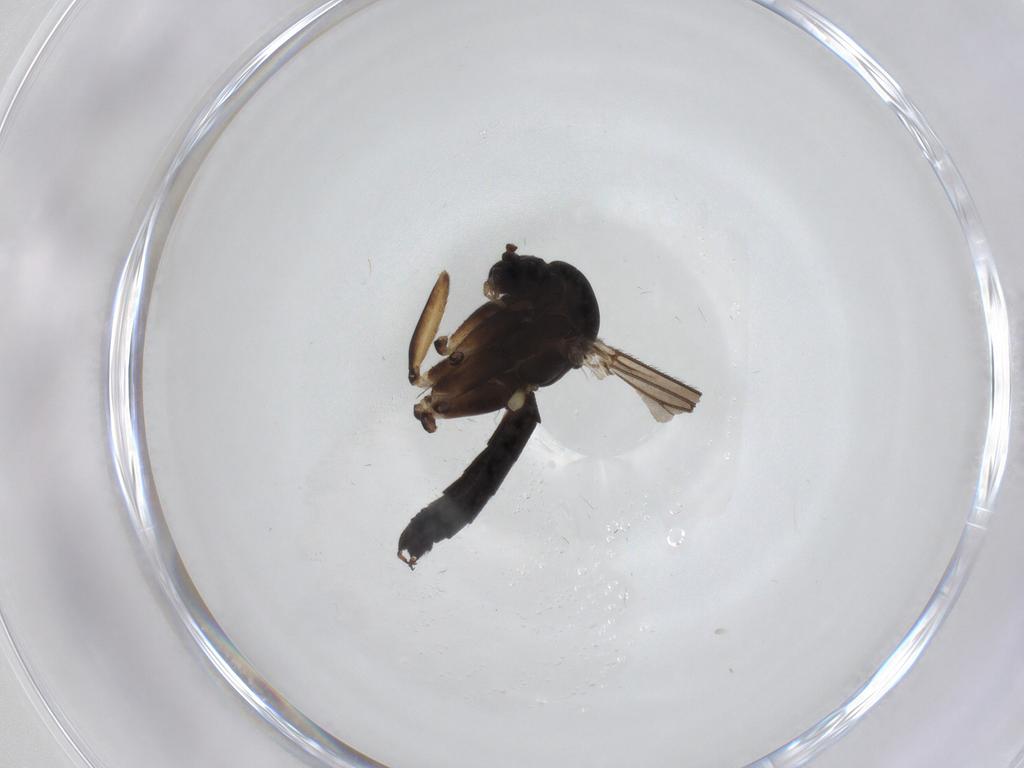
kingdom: Animalia
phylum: Arthropoda
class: Insecta
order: Diptera
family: Mycetophilidae
